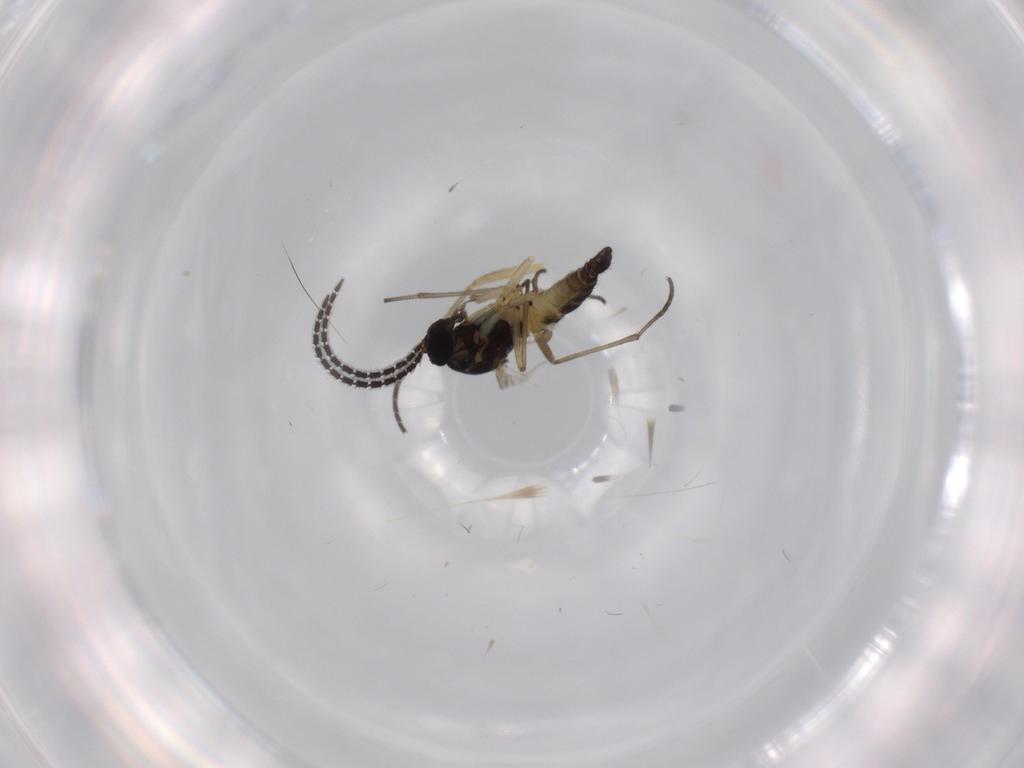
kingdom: Animalia
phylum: Arthropoda
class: Insecta
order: Diptera
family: Sciaridae
